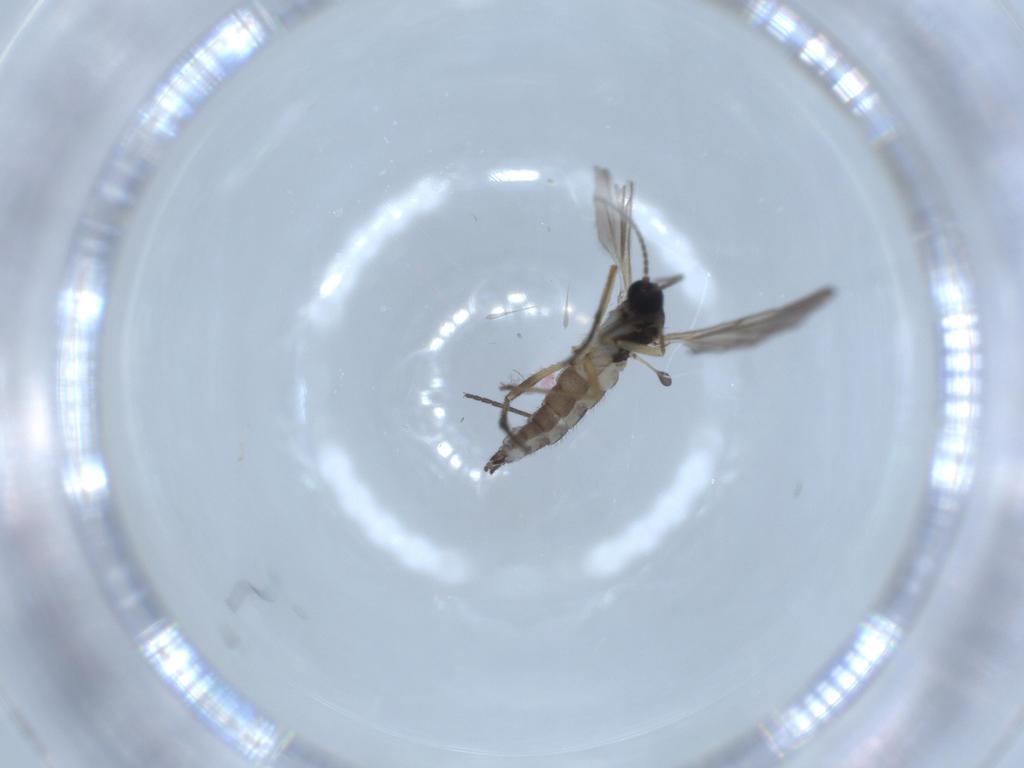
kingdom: Animalia
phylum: Arthropoda
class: Insecta
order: Diptera
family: Sciaridae
